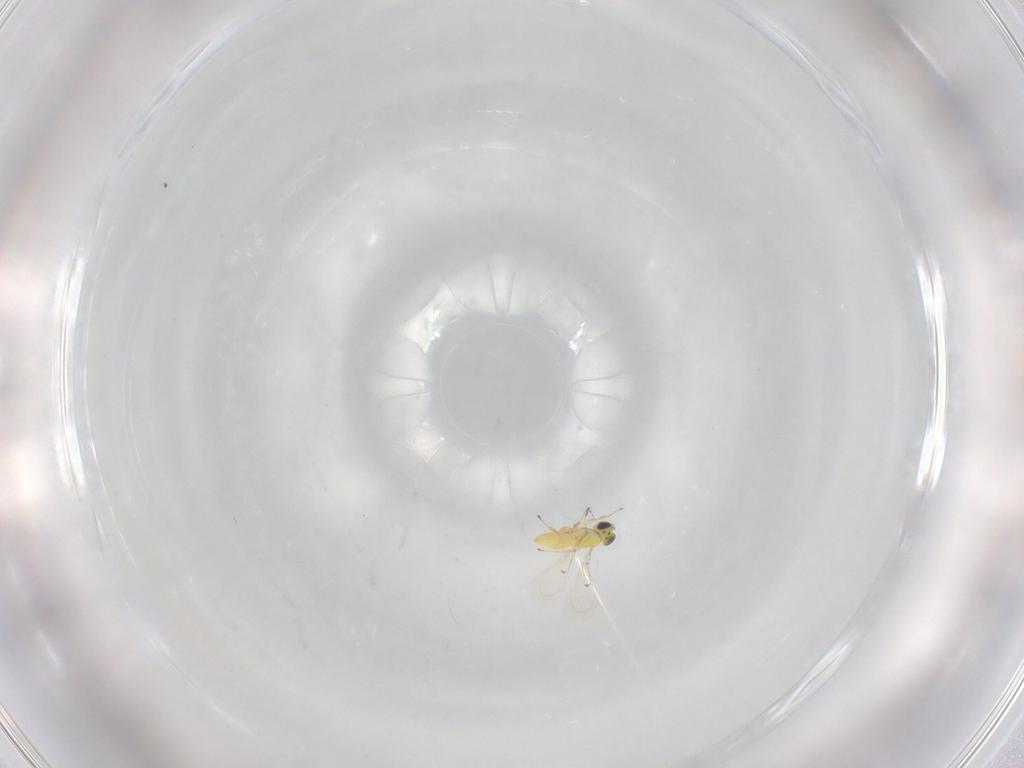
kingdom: Animalia
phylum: Arthropoda
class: Insecta
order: Hymenoptera
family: Trichogrammatidae
